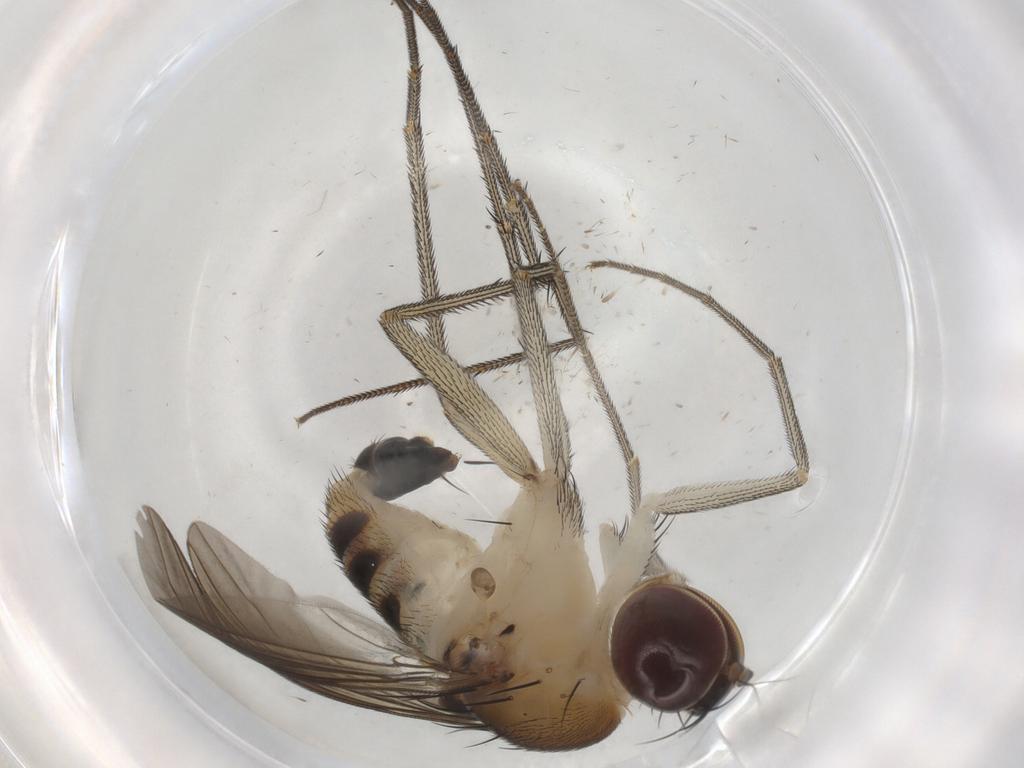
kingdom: Animalia
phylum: Arthropoda
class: Insecta
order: Diptera
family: Dolichopodidae
